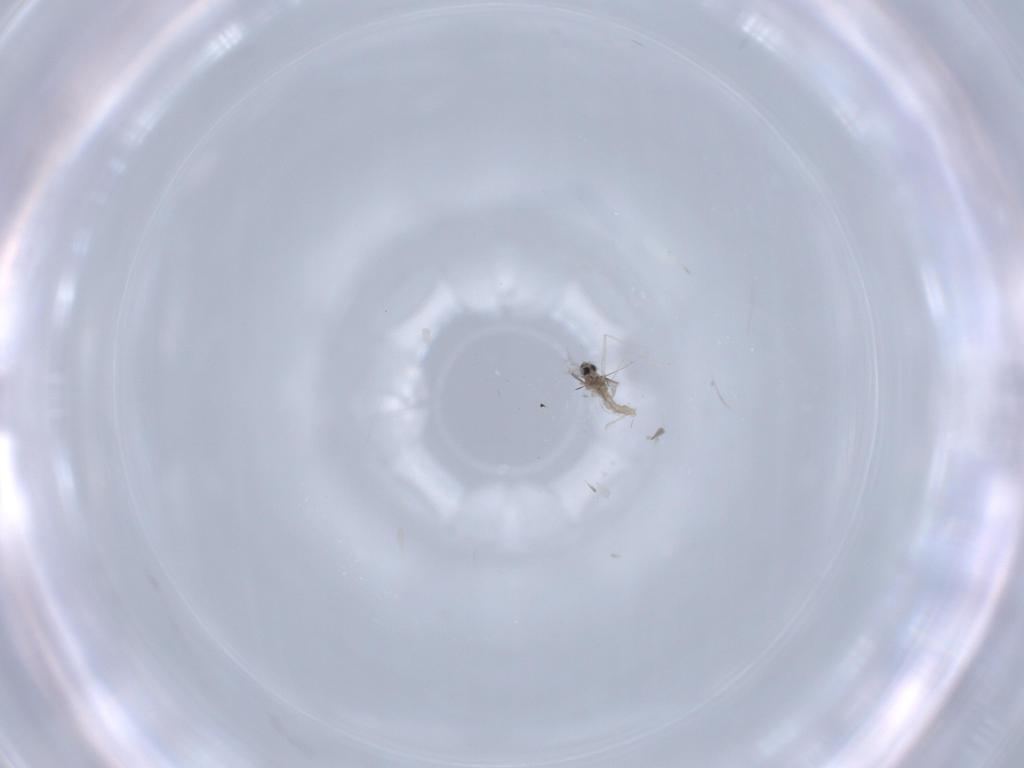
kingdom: Animalia
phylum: Arthropoda
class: Insecta
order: Diptera
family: Cecidomyiidae
